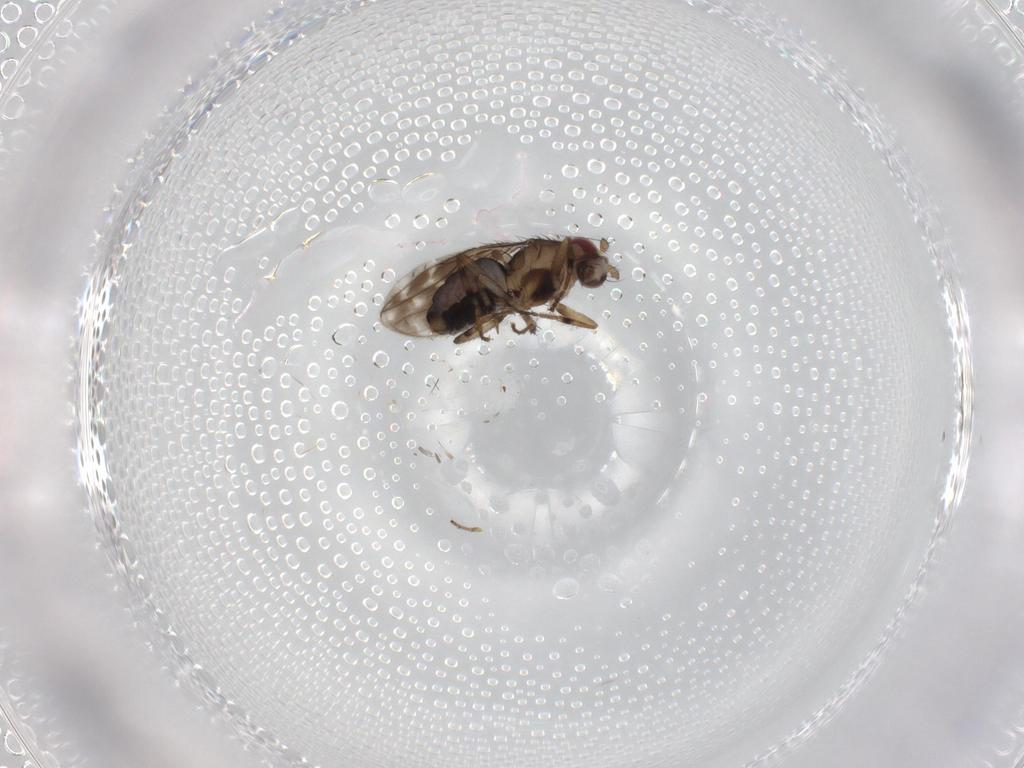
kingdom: Animalia
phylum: Arthropoda
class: Insecta
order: Diptera
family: Sphaeroceridae
